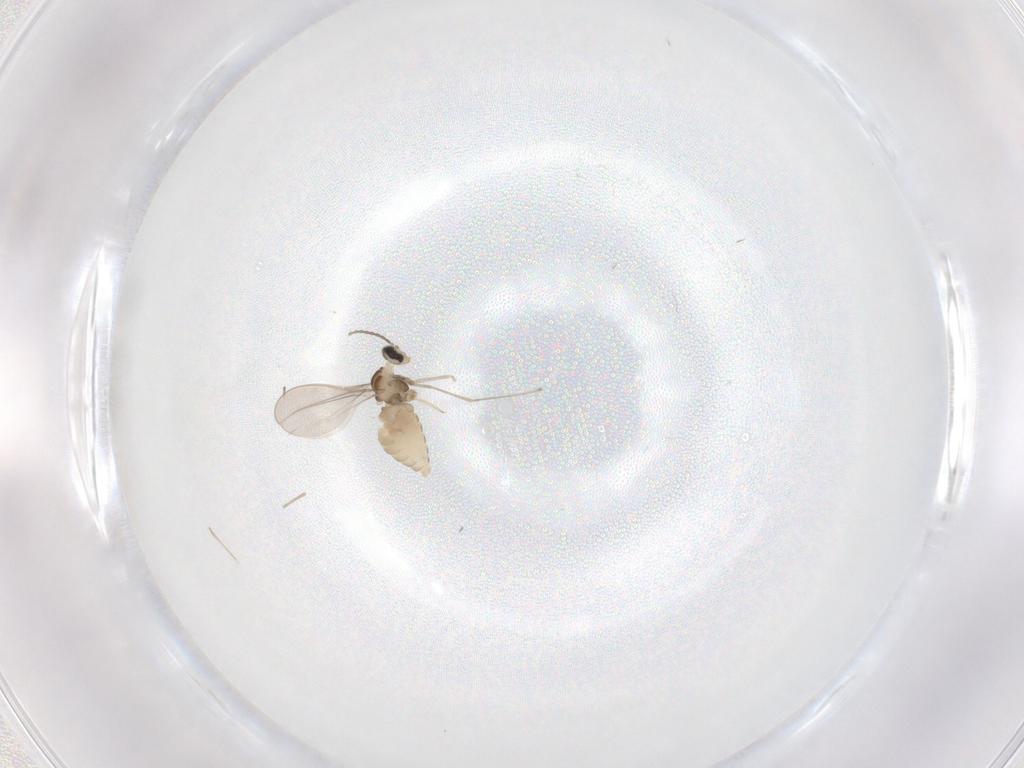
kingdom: Animalia
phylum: Arthropoda
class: Insecta
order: Diptera
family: Cecidomyiidae
